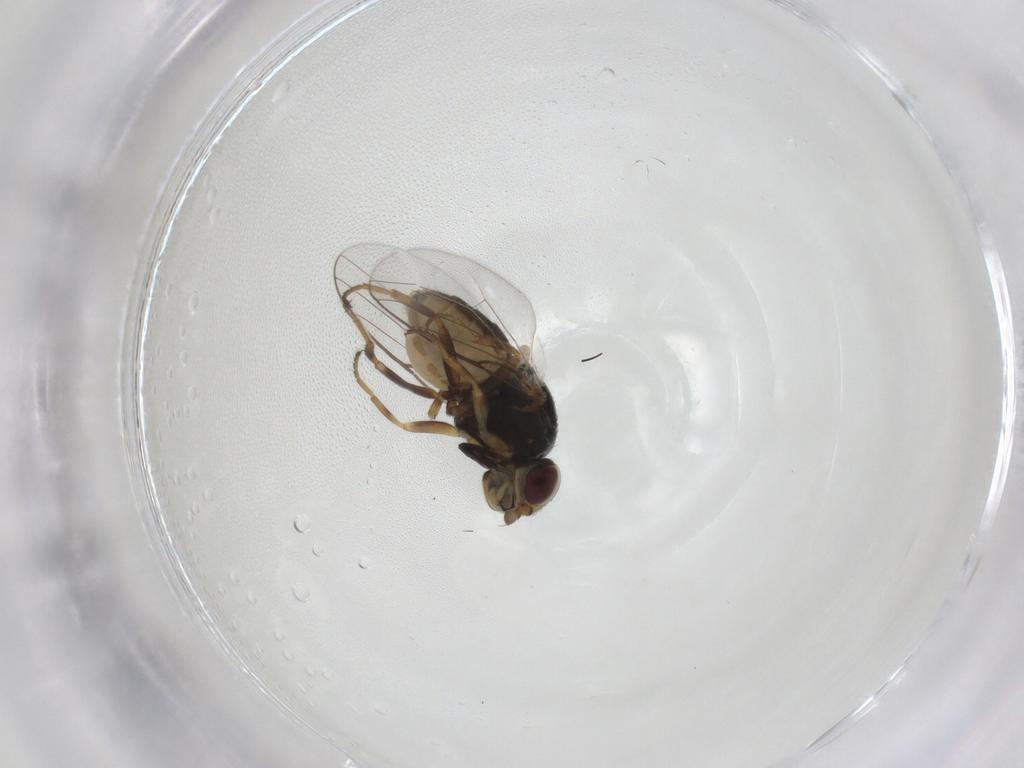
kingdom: Animalia
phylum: Arthropoda
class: Insecta
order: Diptera
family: Chloropidae
